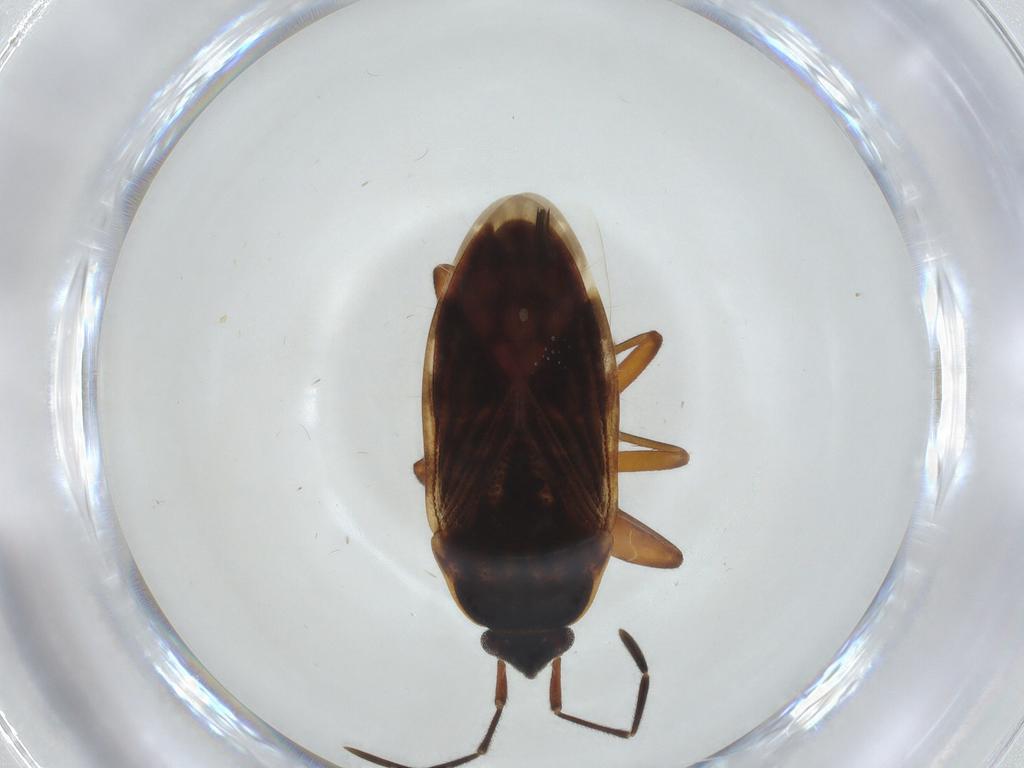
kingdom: Animalia
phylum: Arthropoda
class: Insecta
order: Hemiptera
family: Rhyparochromidae
